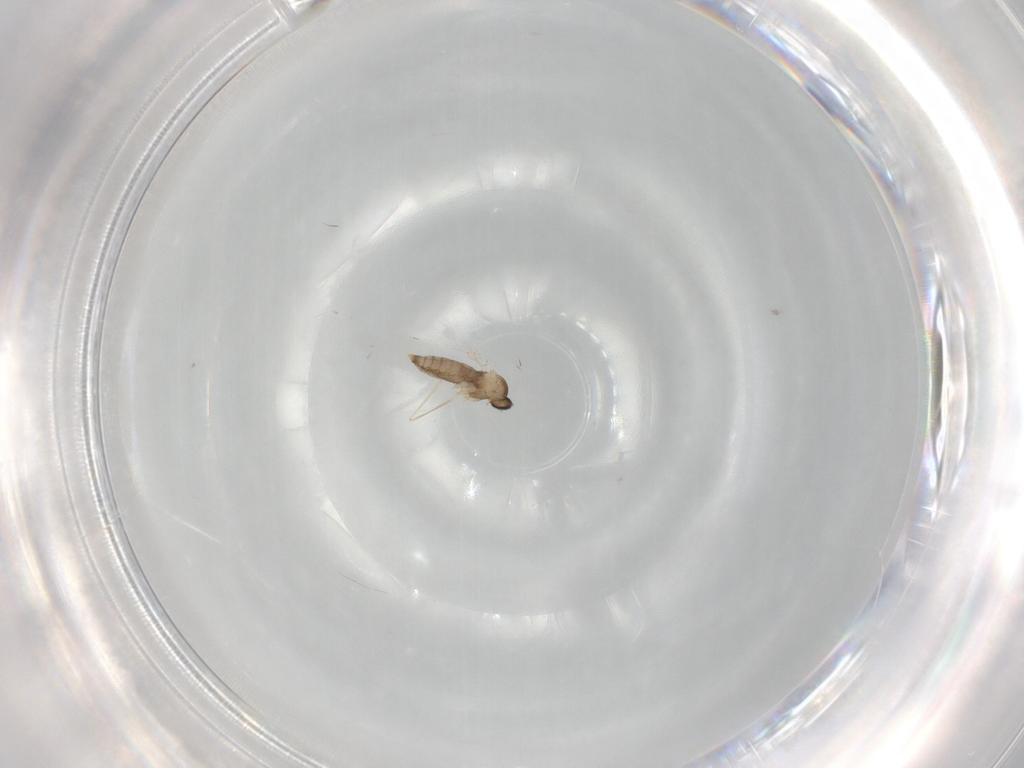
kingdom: Animalia
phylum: Arthropoda
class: Insecta
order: Diptera
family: Cecidomyiidae
